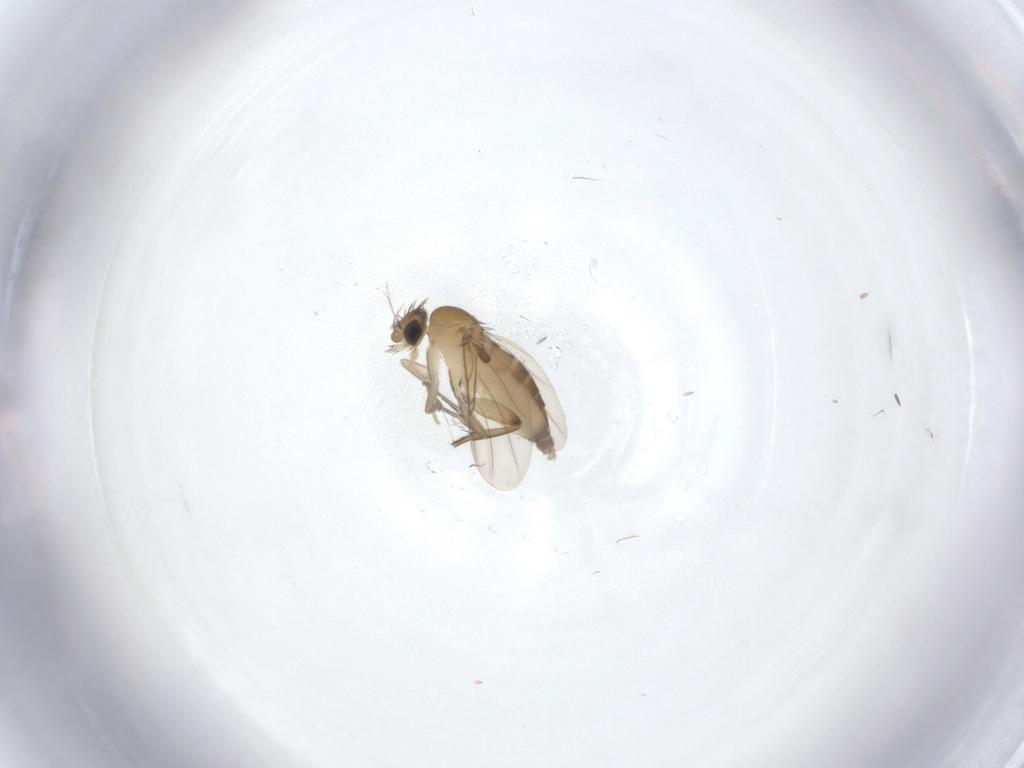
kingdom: Animalia
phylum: Arthropoda
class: Insecta
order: Diptera
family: Phoridae
